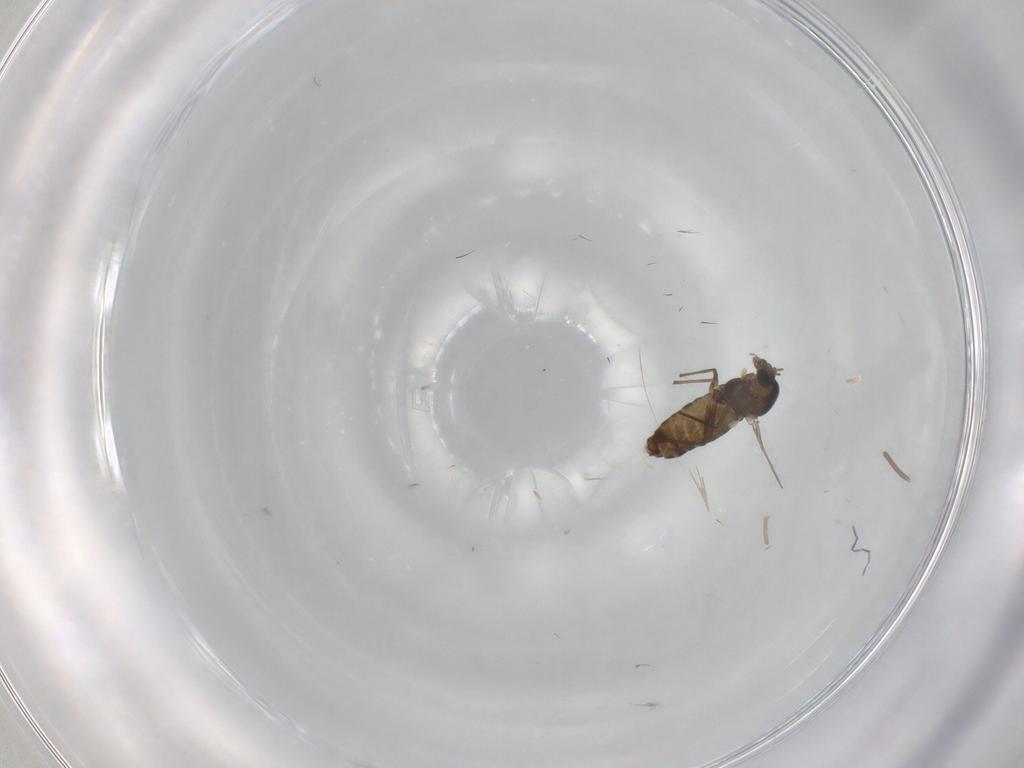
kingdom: Animalia
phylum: Arthropoda
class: Insecta
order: Diptera
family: Chironomidae
